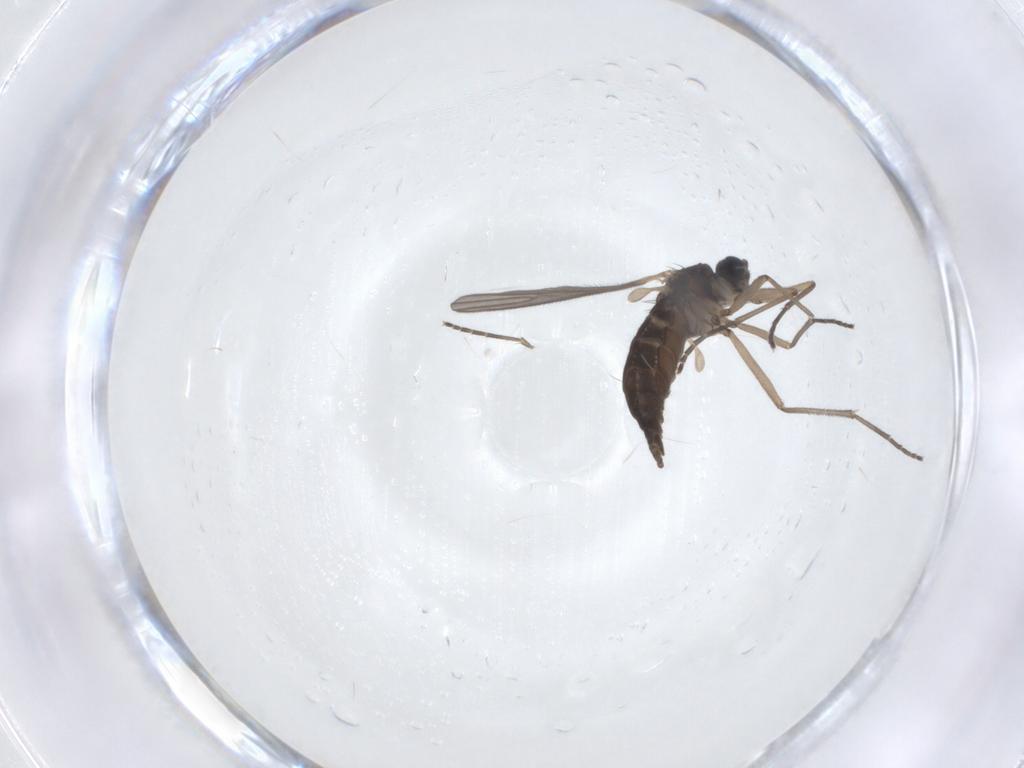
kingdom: Animalia
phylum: Arthropoda
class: Insecta
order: Diptera
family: Sciaridae
